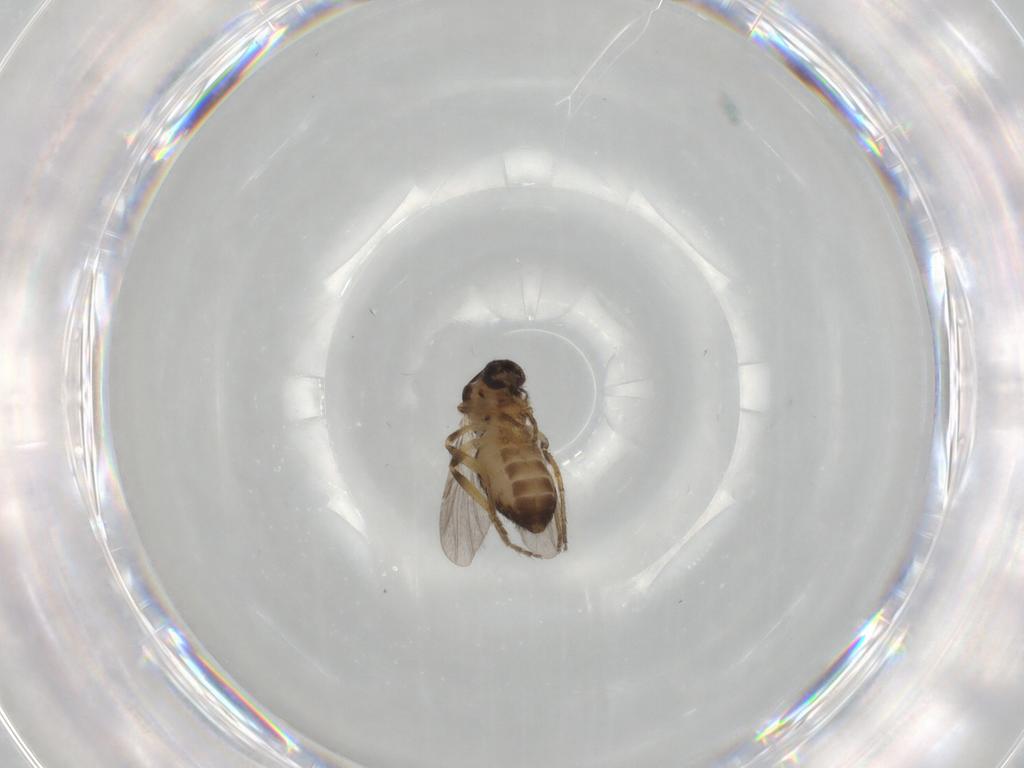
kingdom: Animalia
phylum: Arthropoda
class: Insecta
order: Diptera
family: Ceratopogonidae
